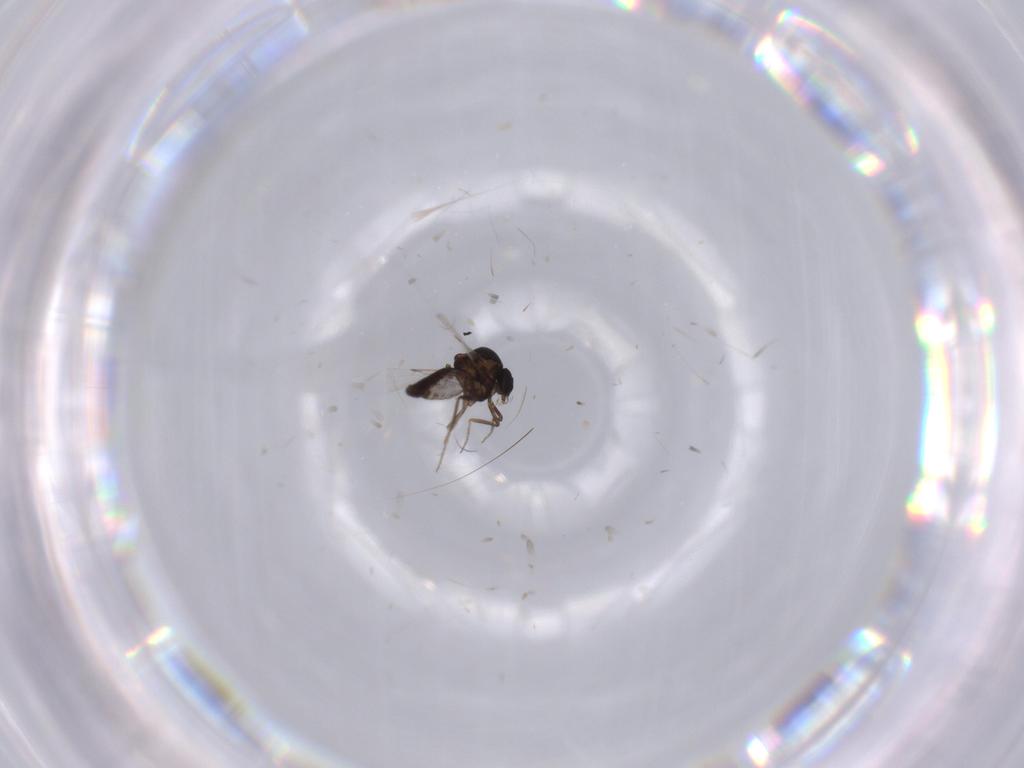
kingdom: Animalia
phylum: Arthropoda
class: Insecta
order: Diptera
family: Ceratopogonidae
